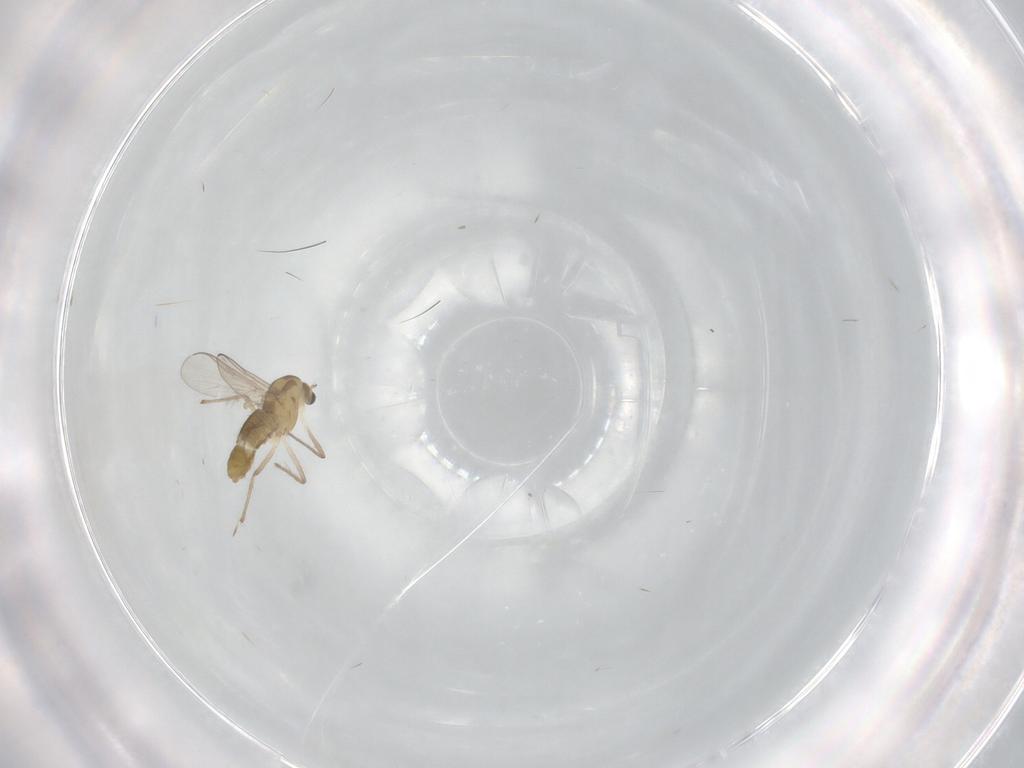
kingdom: Animalia
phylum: Arthropoda
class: Insecta
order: Diptera
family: Chironomidae
